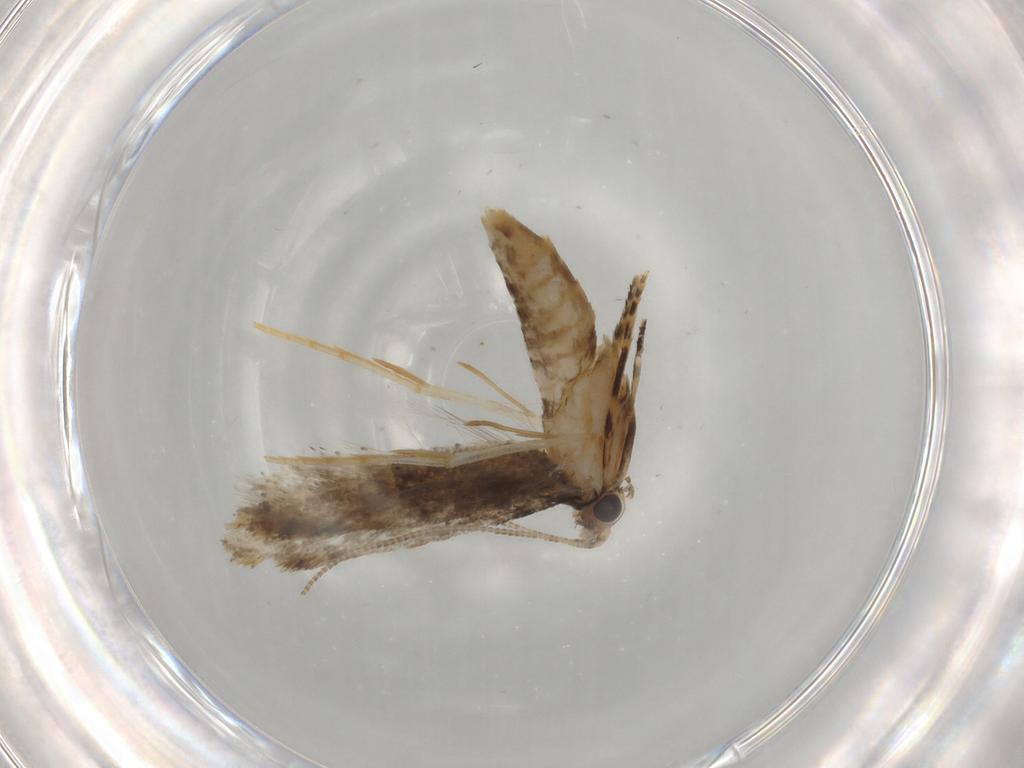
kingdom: Animalia
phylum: Arthropoda
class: Insecta
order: Lepidoptera
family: Tineidae
